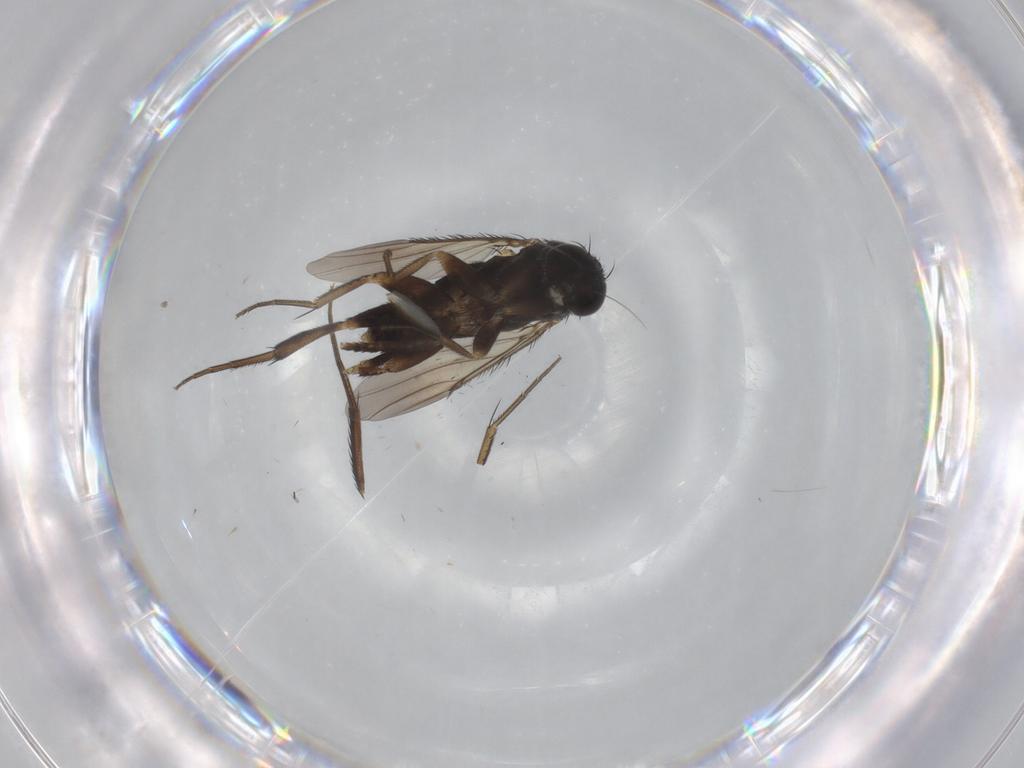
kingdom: Animalia
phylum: Arthropoda
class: Insecta
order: Diptera
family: Phoridae
